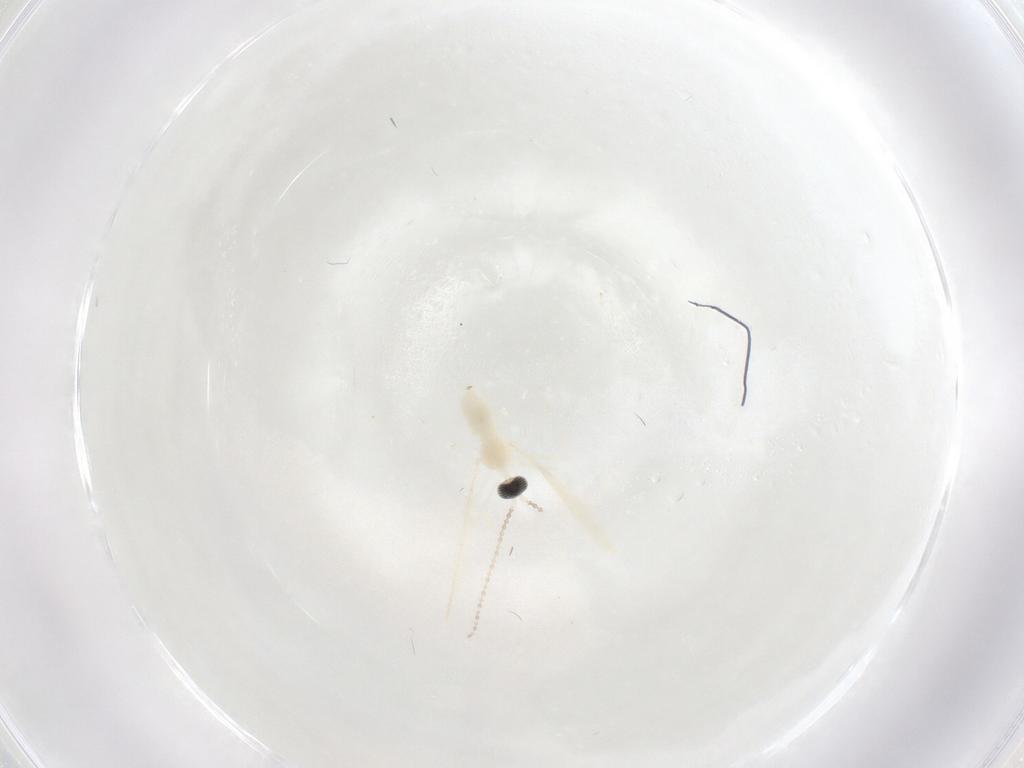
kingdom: Animalia
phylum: Arthropoda
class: Insecta
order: Diptera
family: Cecidomyiidae
